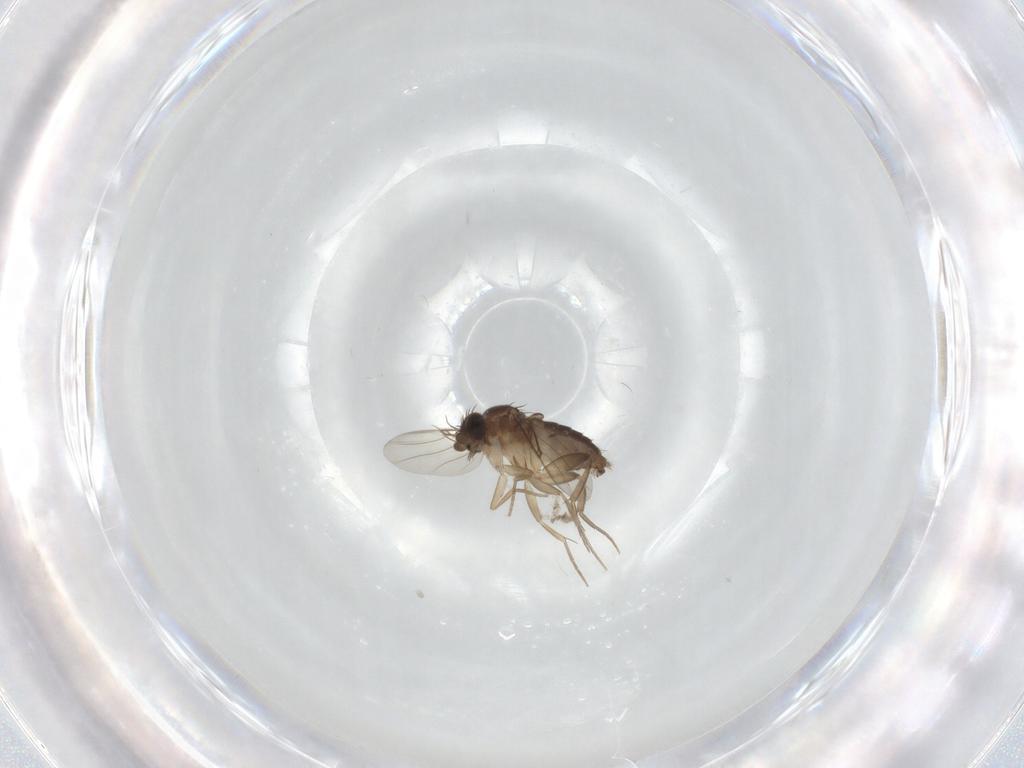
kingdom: Animalia
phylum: Arthropoda
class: Insecta
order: Diptera
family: Phoridae
